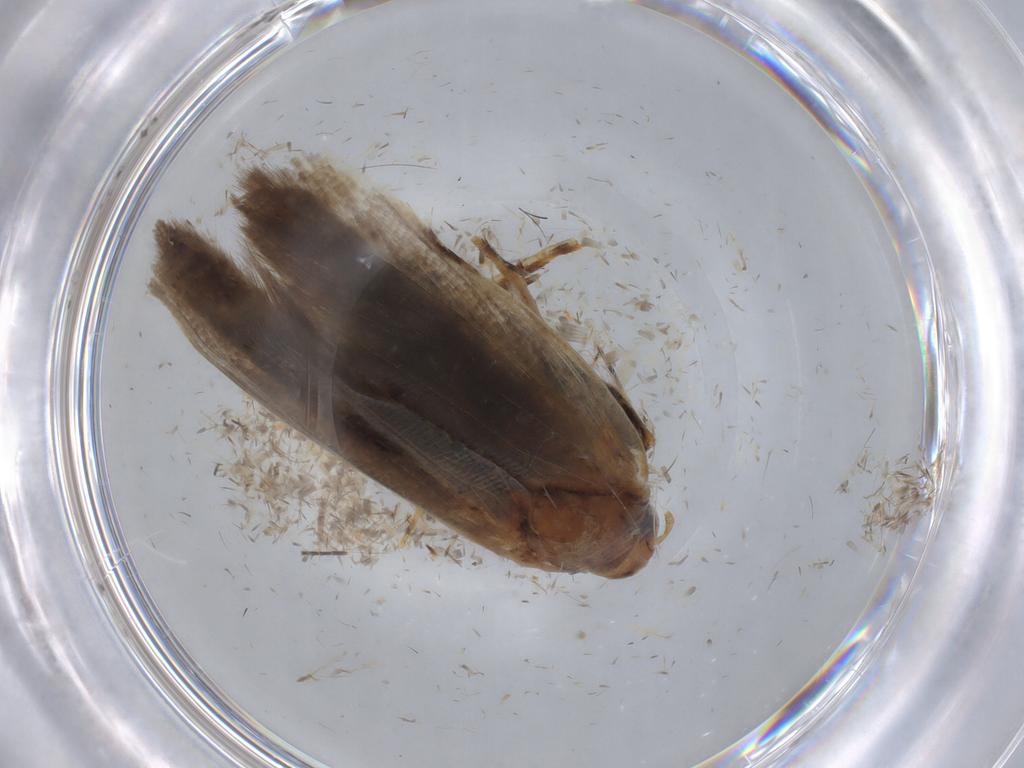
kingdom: Animalia
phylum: Arthropoda
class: Insecta
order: Lepidoptera
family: Gelechiidae
